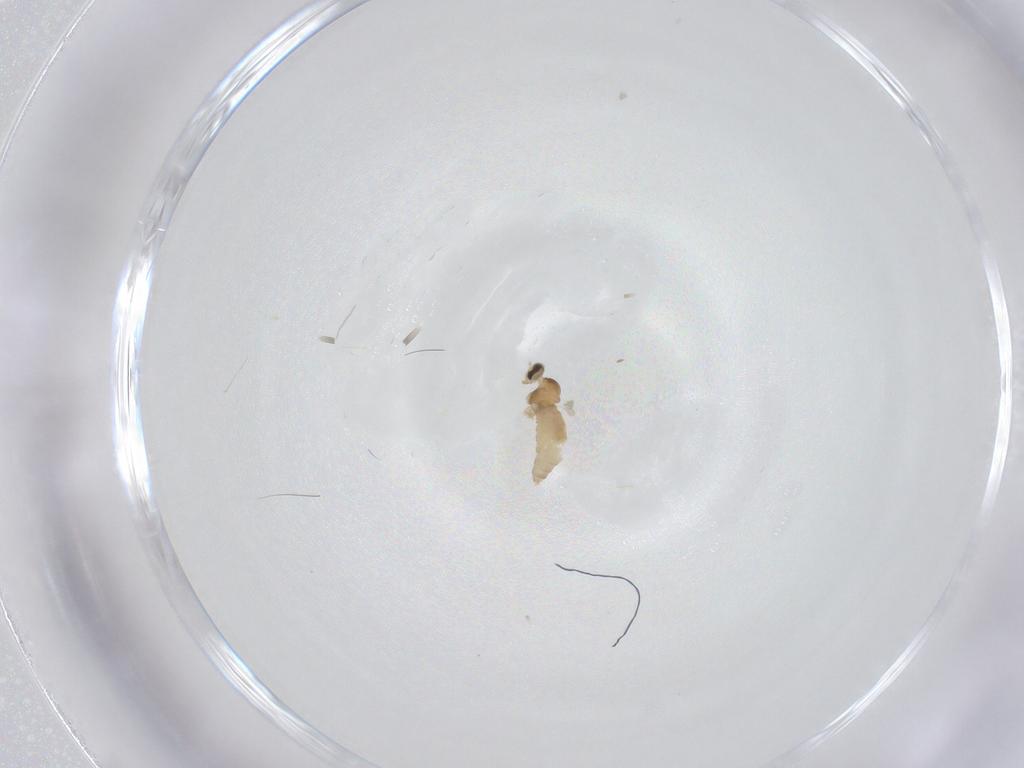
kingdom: Animalia
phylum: Arthropoda
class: Insecta
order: Diptera
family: Cecidomyiidae
